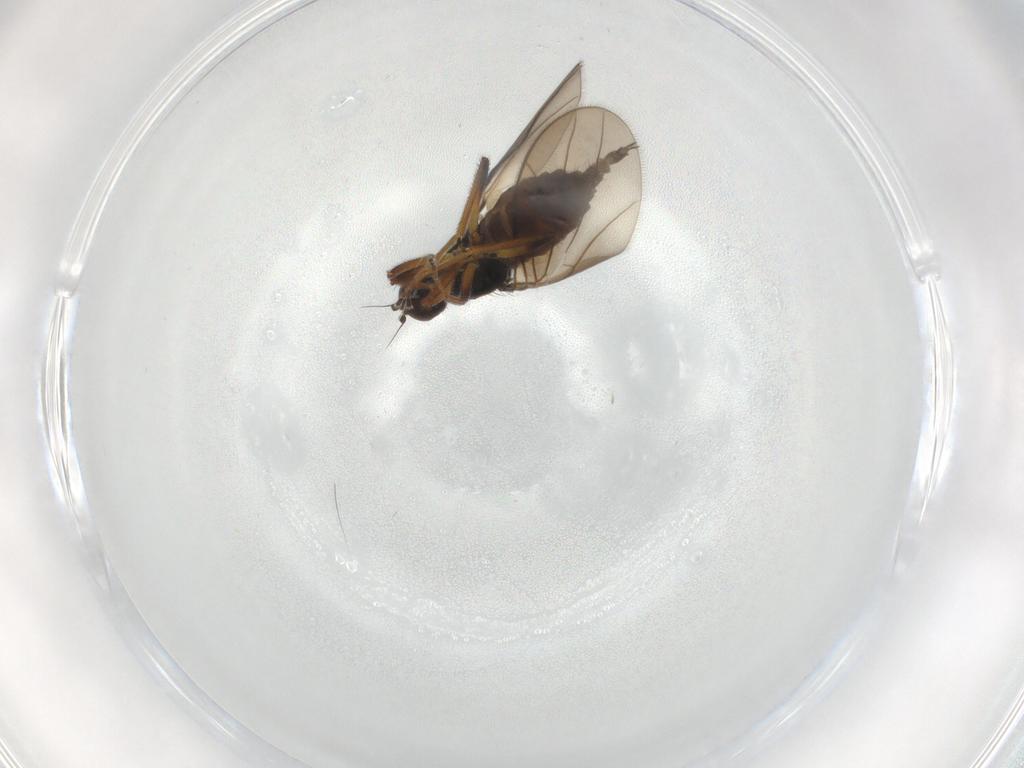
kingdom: Animalia
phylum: Arthropoda
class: Insecta
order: Diptera
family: Hybotidae
